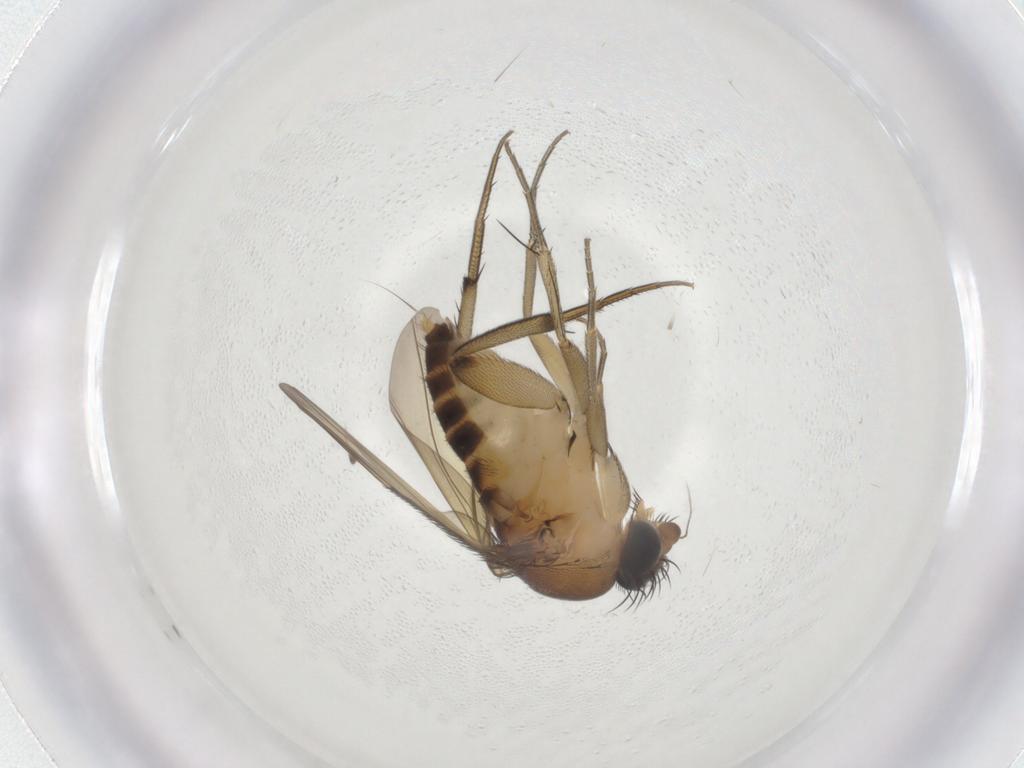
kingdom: Animalia
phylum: Arthropoda
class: Insecta
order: Diptera
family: Phoridae
